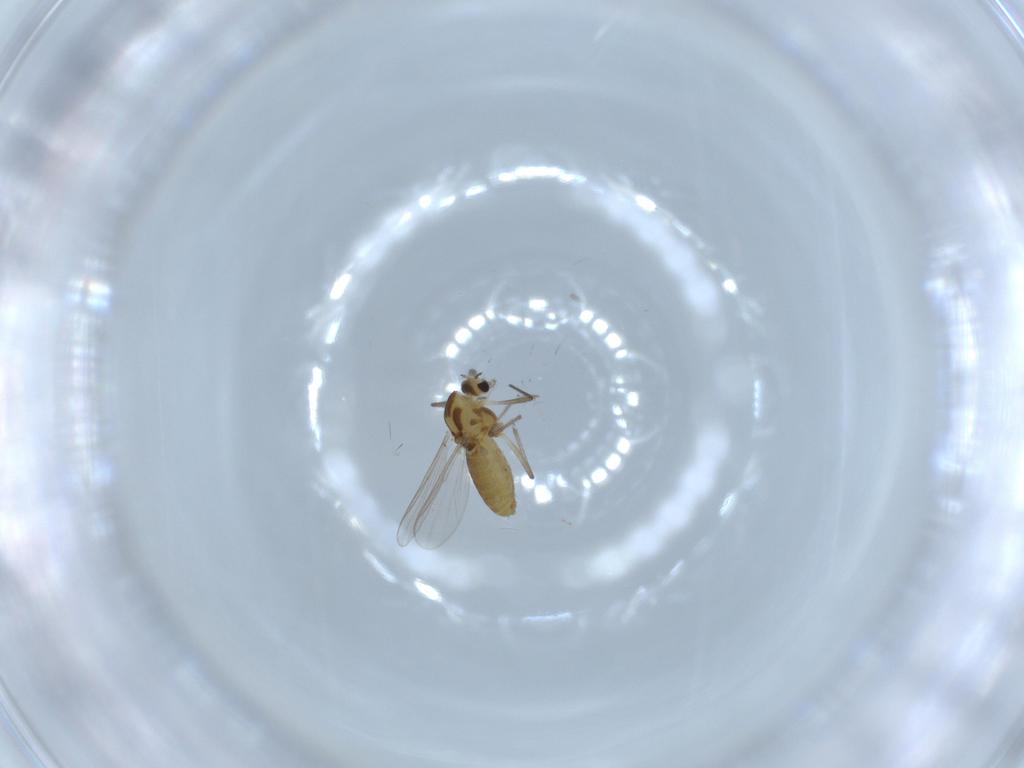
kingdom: Animalia
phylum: Arthropoda
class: Insecta
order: Diptera
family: Chironomidae
